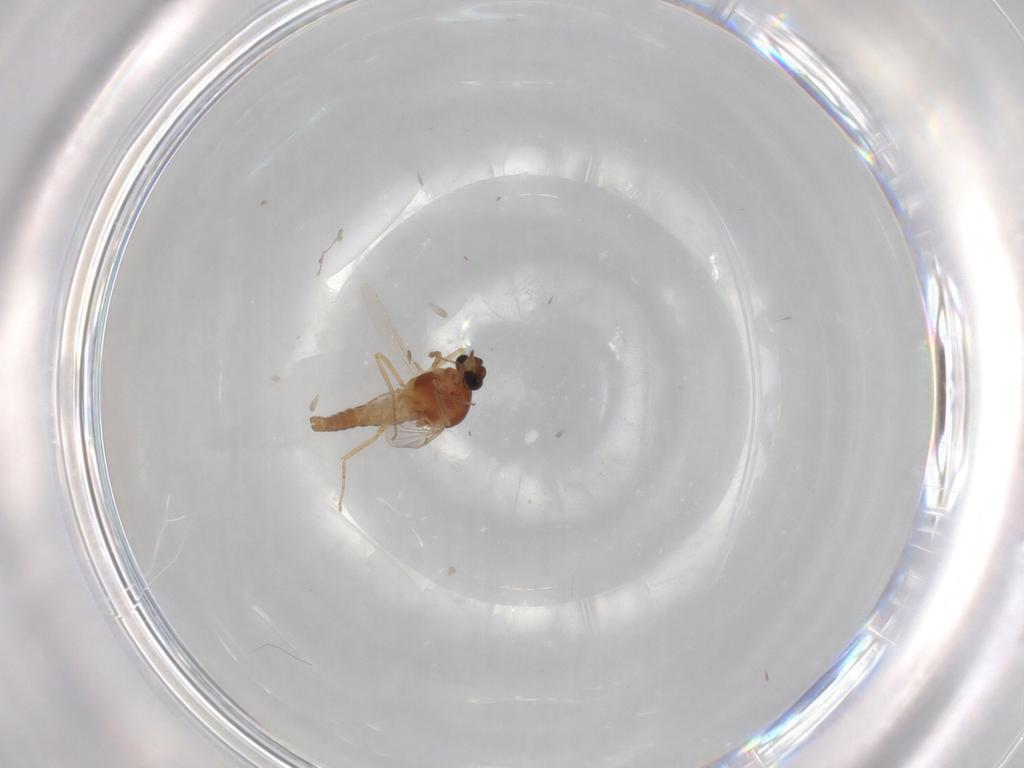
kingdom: Animalia
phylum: Arthropoda
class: Insecta
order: Diptera
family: Ceratopogonidae
